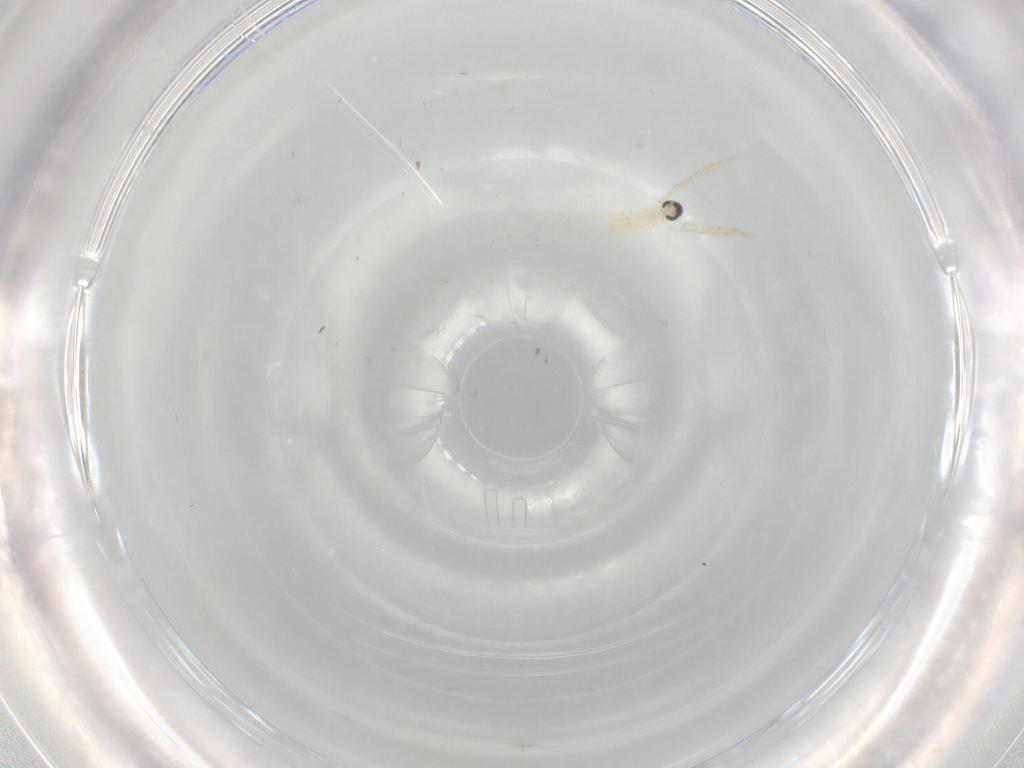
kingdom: Animalia
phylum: Arthropoda
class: Insecta
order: Diptera
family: Cecidomyiidae
